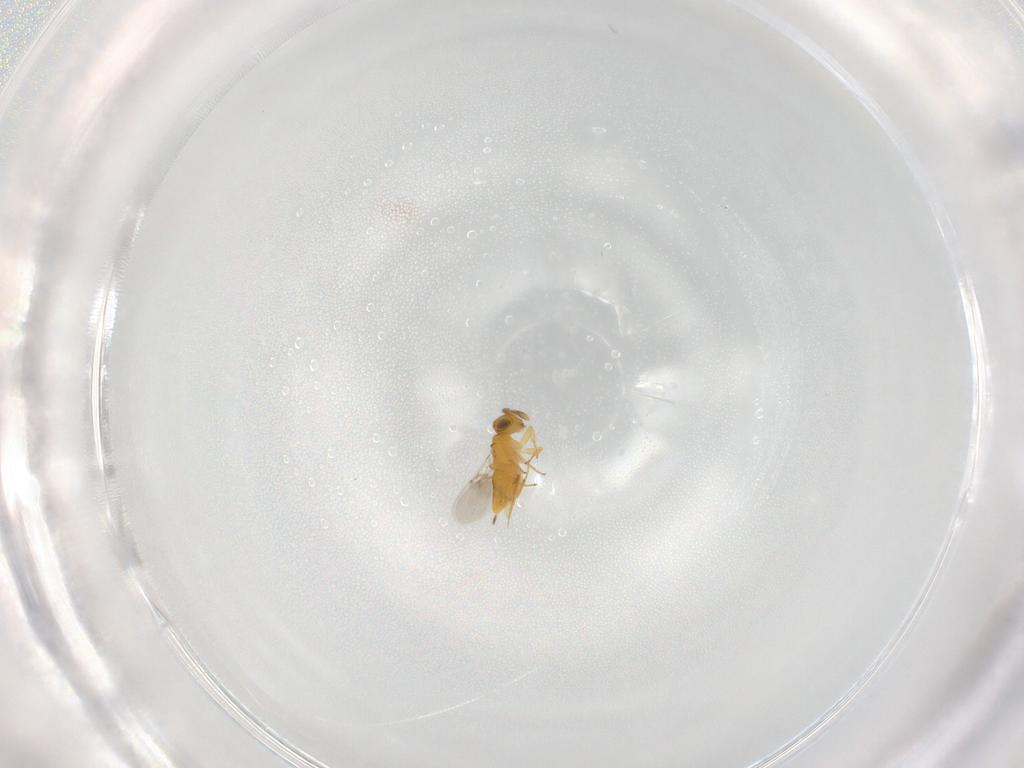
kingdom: Animalia
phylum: Arthropoda
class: Insecta
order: Hymenoptera
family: Encyrtidae
